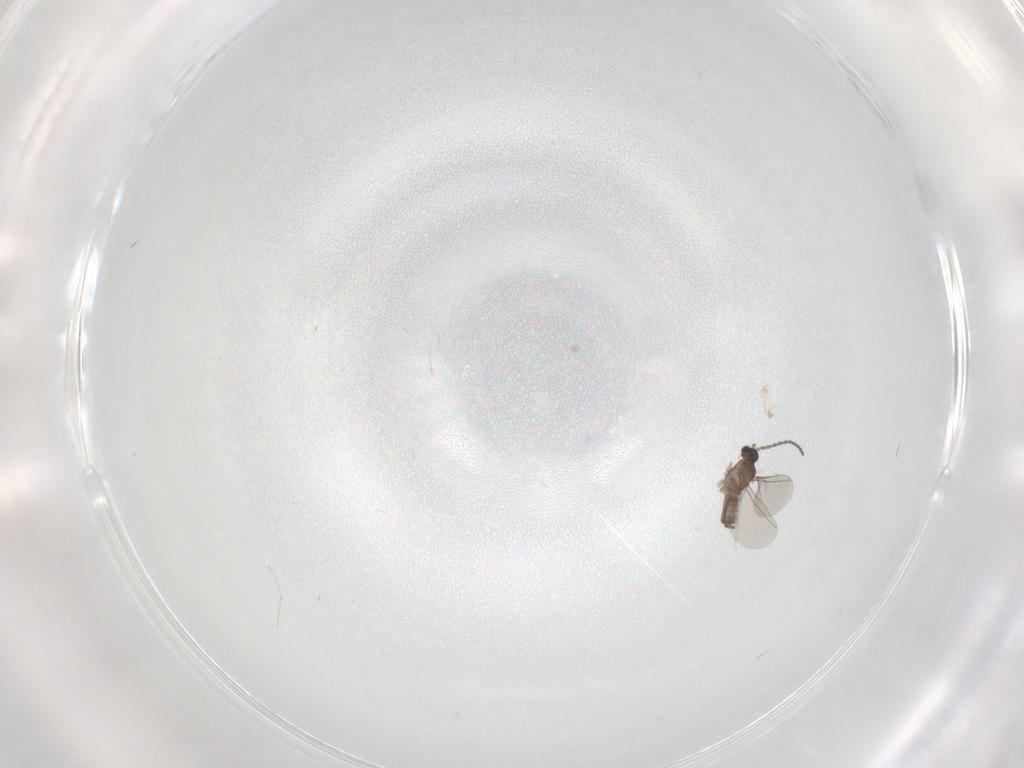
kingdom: Animalia
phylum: Arthropoda
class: Insecta
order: Diptera
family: Cecidomyiidae
